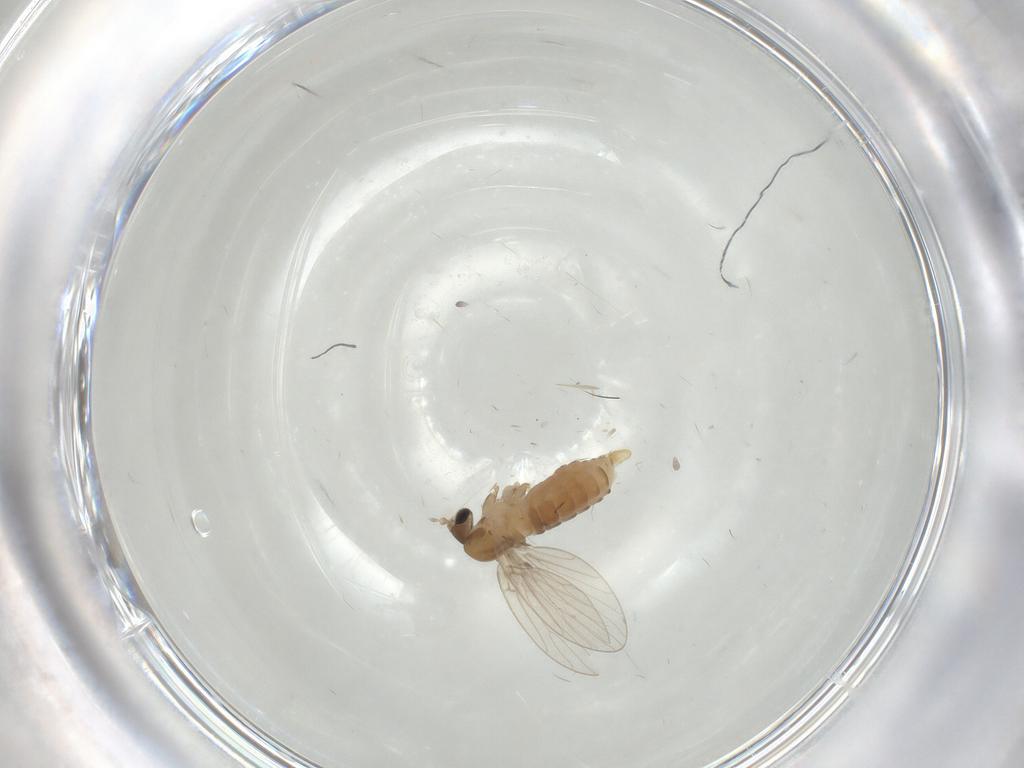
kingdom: Animalia
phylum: Arthropoda
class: Insecta
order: Diptera
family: Psychodidae
